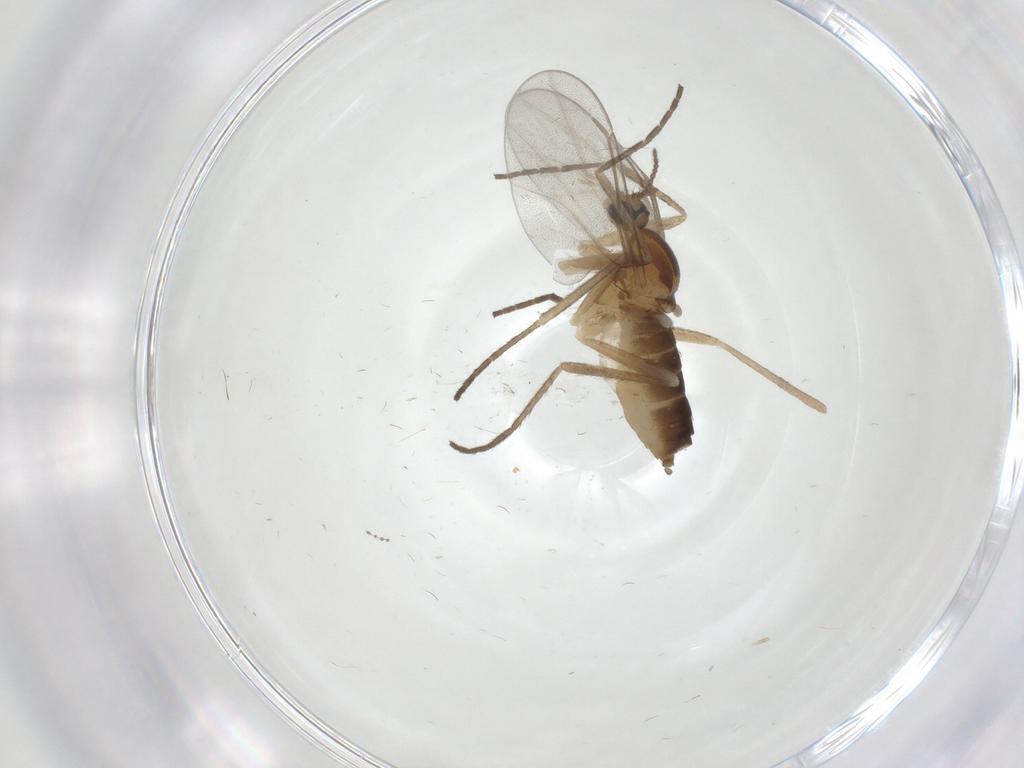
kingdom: Animalia
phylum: Arthropoda
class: Insecta
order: Diptera
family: Cecidomyiidae
